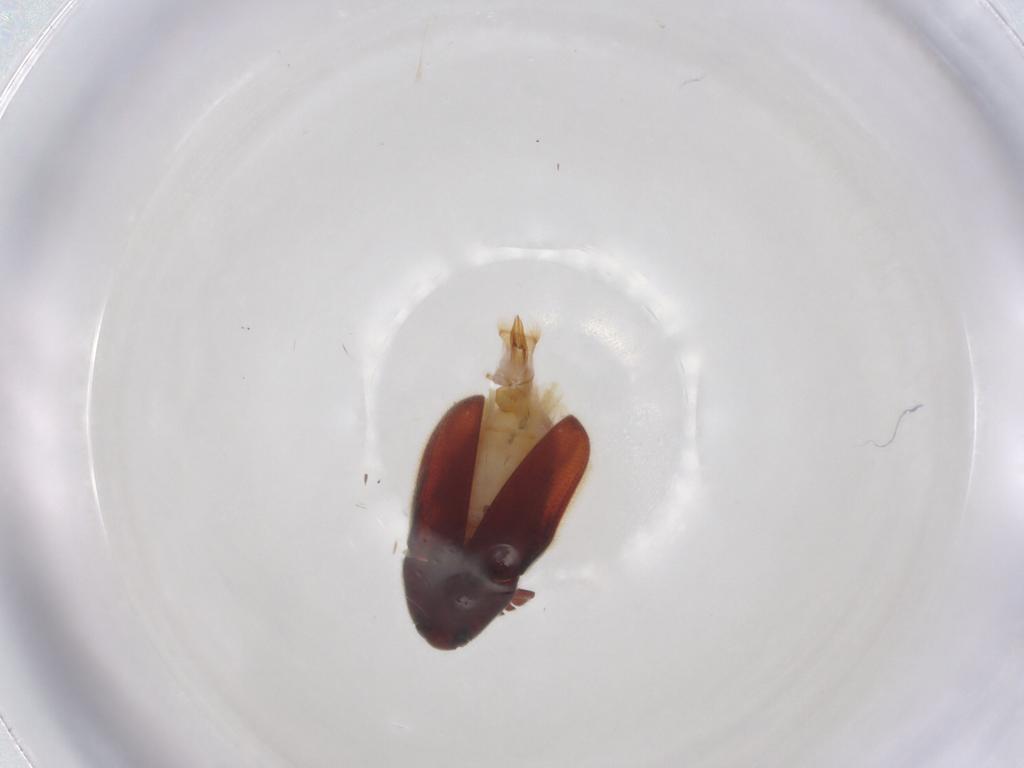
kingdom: Animalia
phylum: Arthropoda
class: Insecta
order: Coleoptera
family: Throscidae
